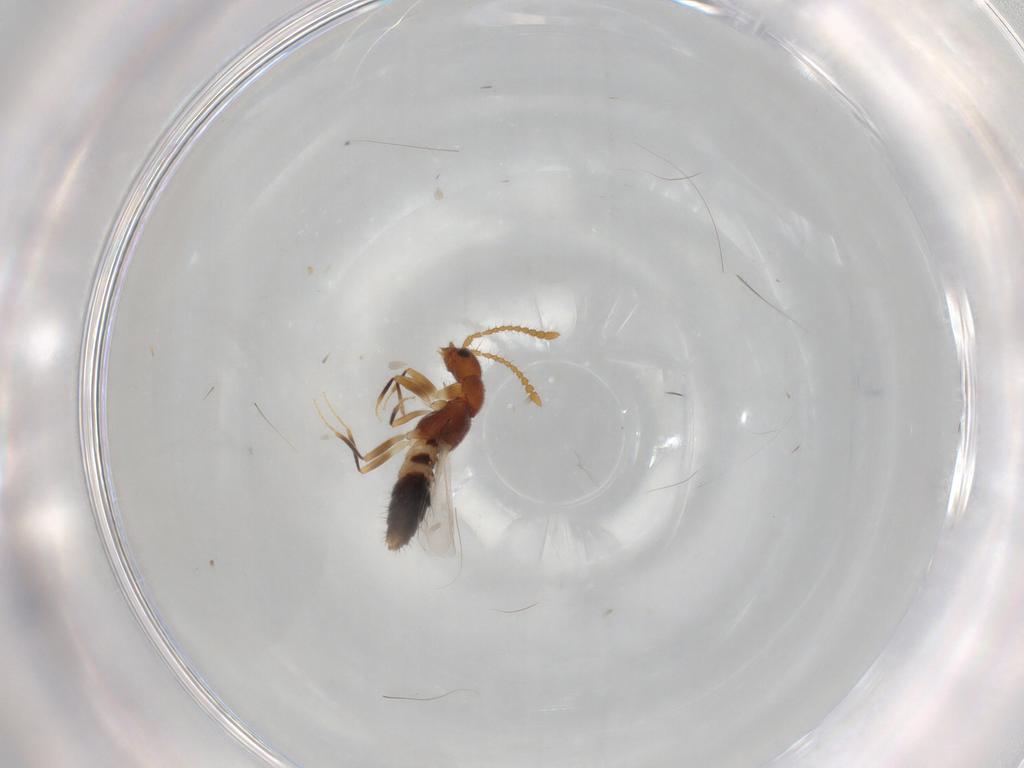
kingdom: Animalia
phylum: Arthropoda
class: Insecta
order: Coleoptera
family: Staphylinidae
